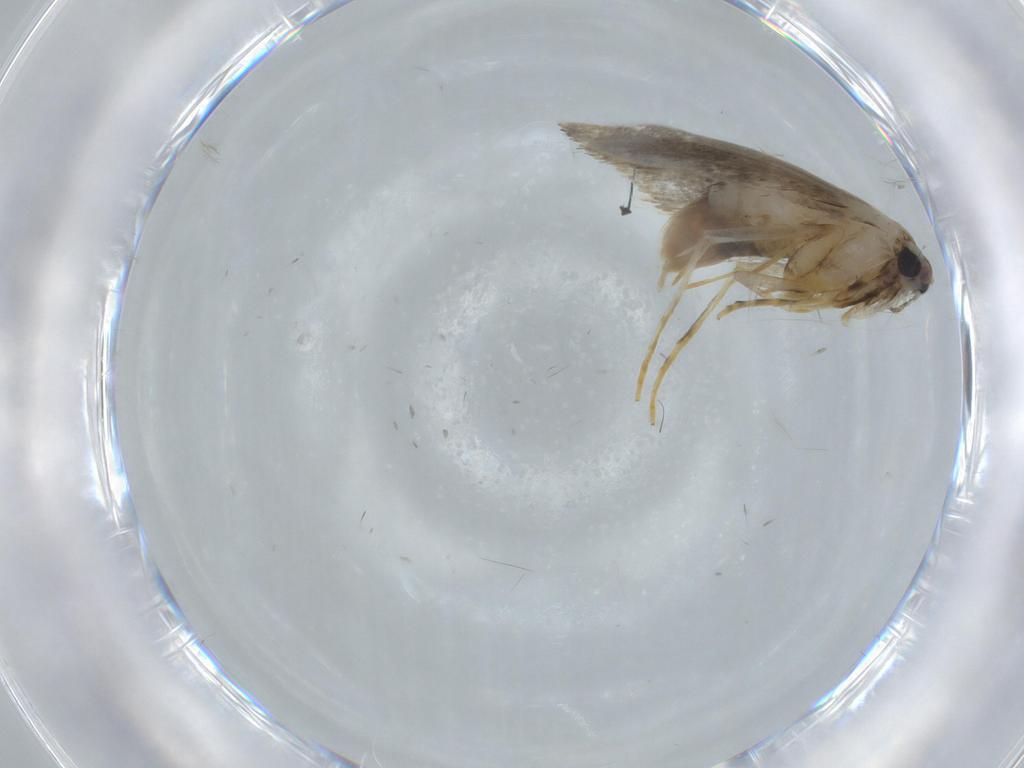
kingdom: Animalia
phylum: Arthropoda
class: Insecta
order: Lepidoptera
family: Tineidae
